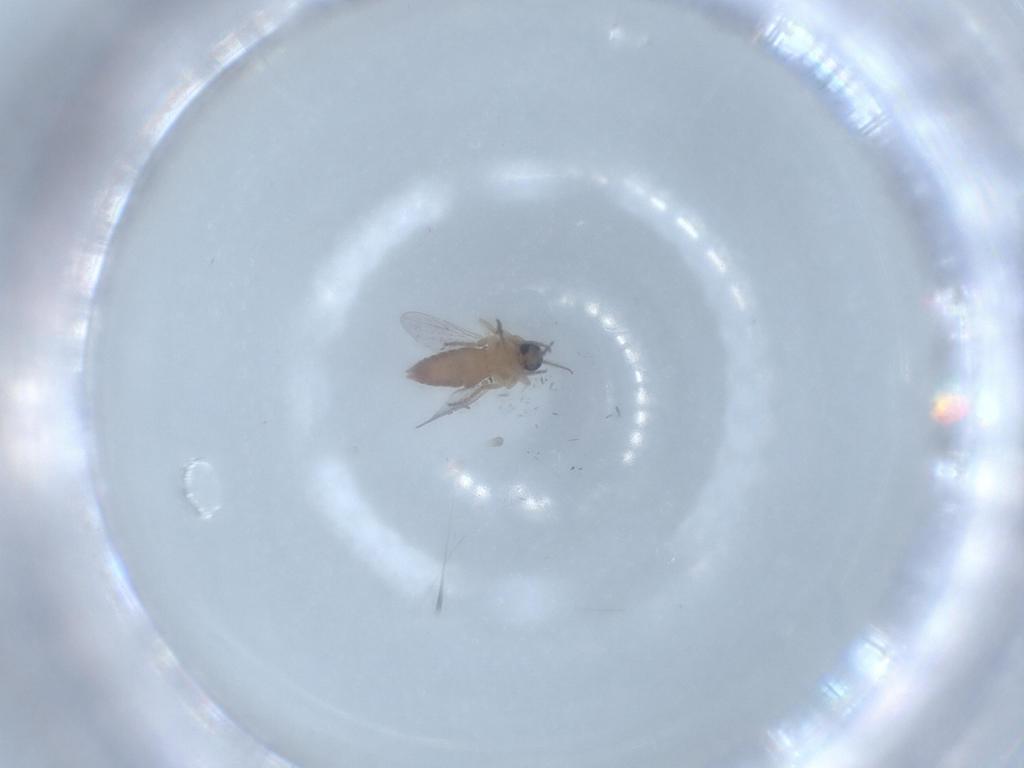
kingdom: Animalia
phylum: Arthropoda
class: Insecta
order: Diptera
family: Ceratopogonidae
